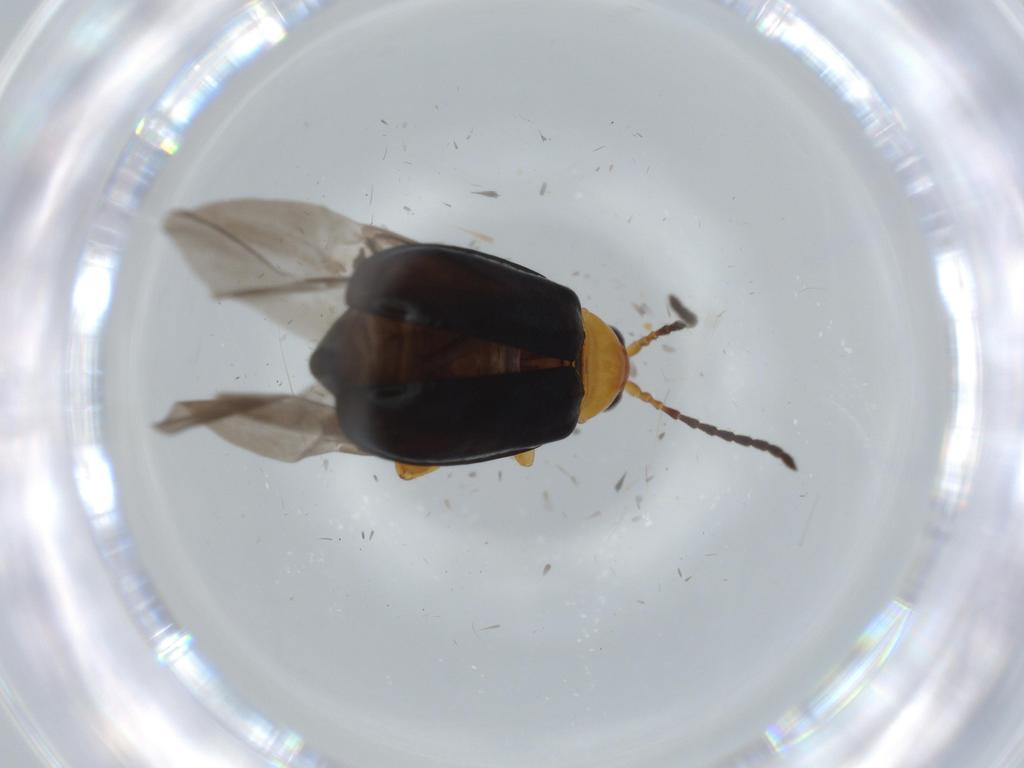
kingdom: Animalia
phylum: Arthropoda
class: Insecta
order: Coleoptera
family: Chrysomelidae
